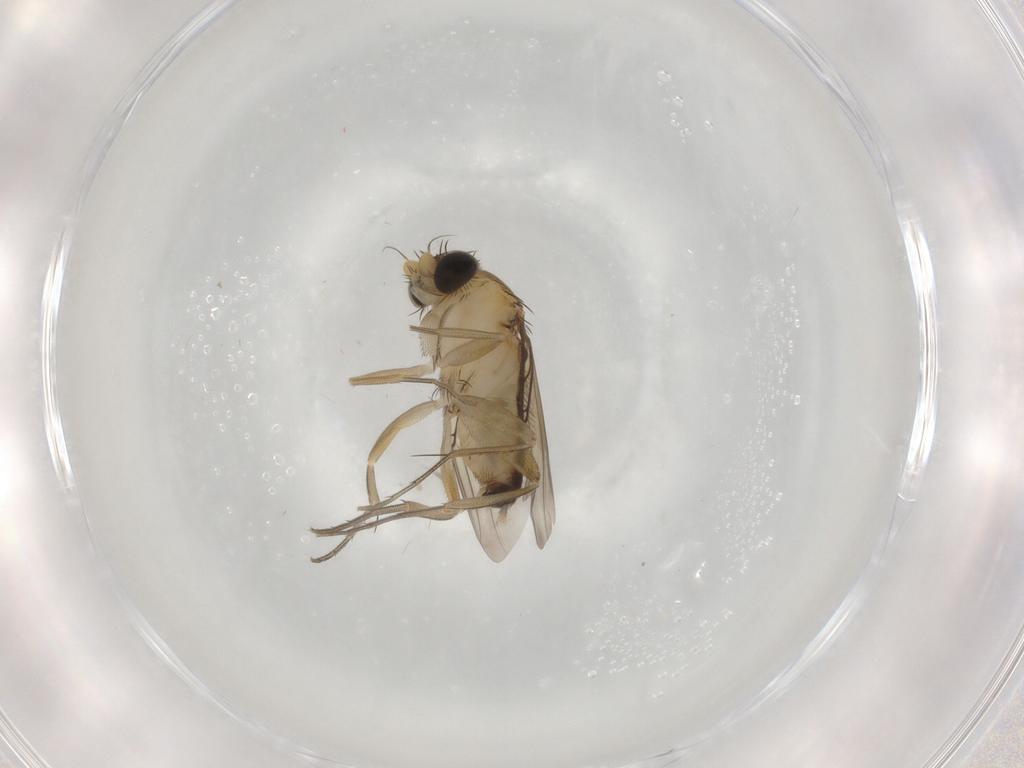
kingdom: Animalia
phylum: Arthropoda
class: Insecta
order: Diptera
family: Phoridae
